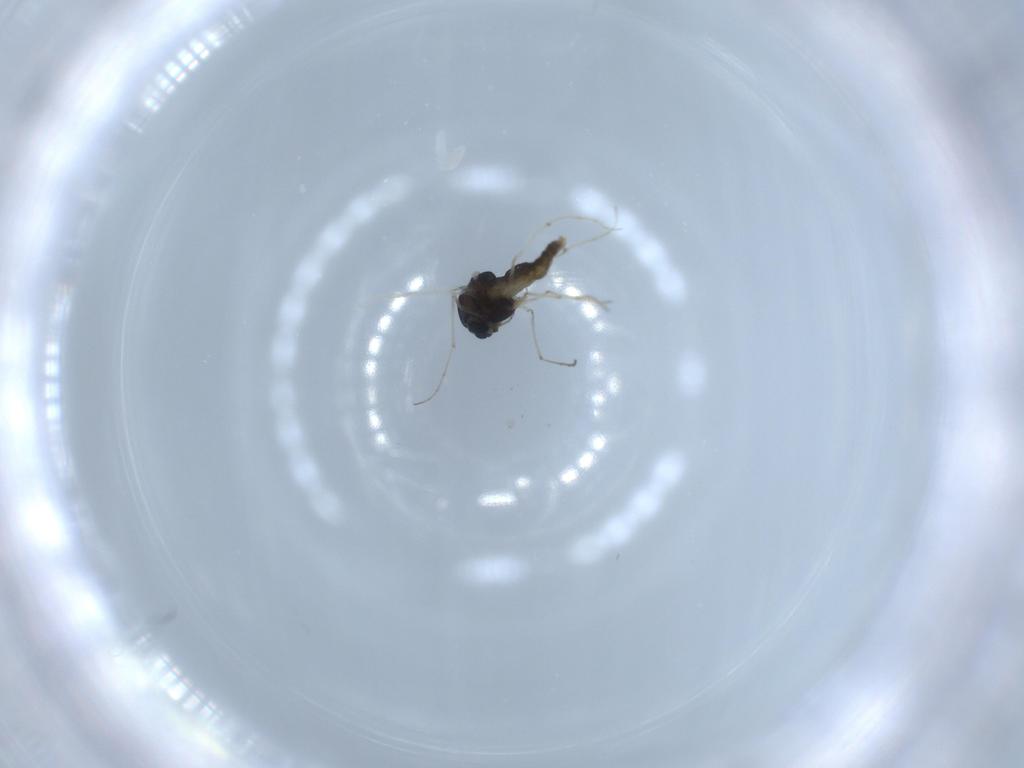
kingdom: Animalia
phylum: Arthropoda
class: Insecta
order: Diptera
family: Chironomidae
